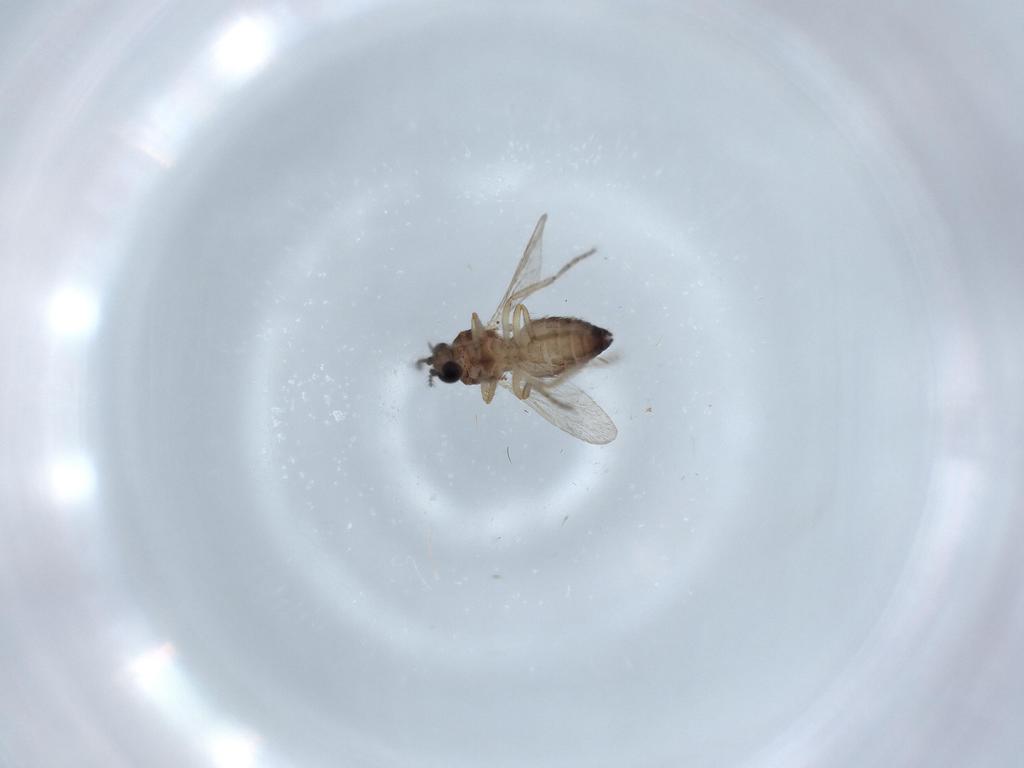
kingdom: Animalia
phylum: Arthropoda
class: Insecta
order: Diptera
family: Ceratopogonidae
